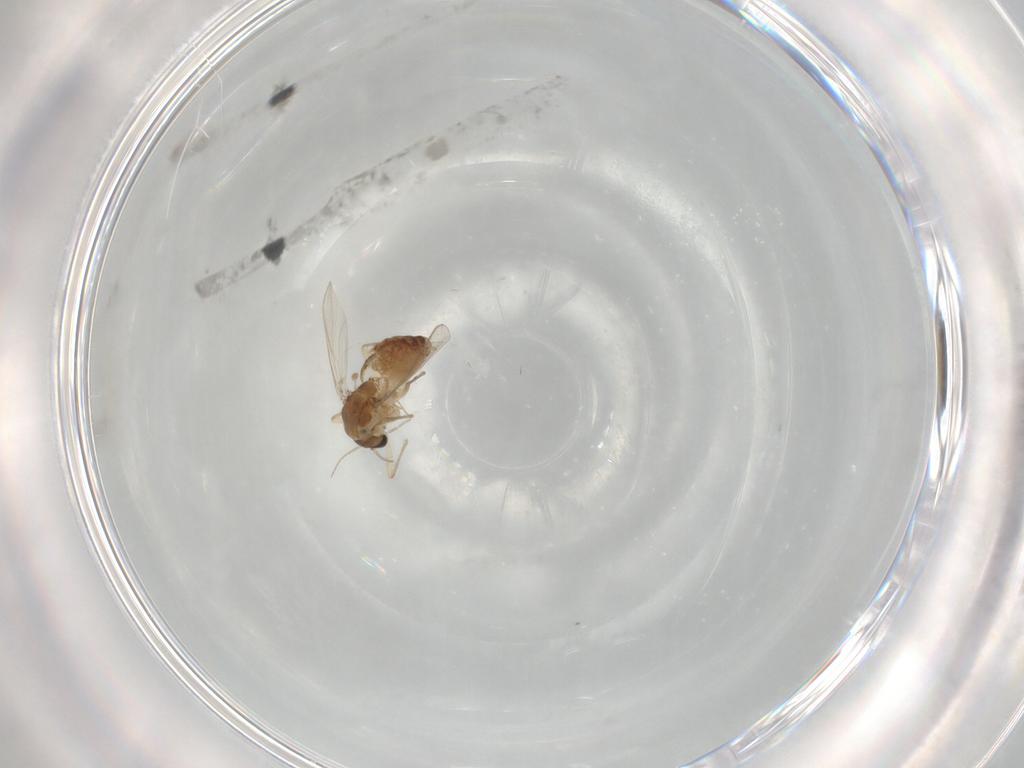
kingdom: Animalia
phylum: Arthropoda
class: Insecta
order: Diptera
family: Chironomidae
